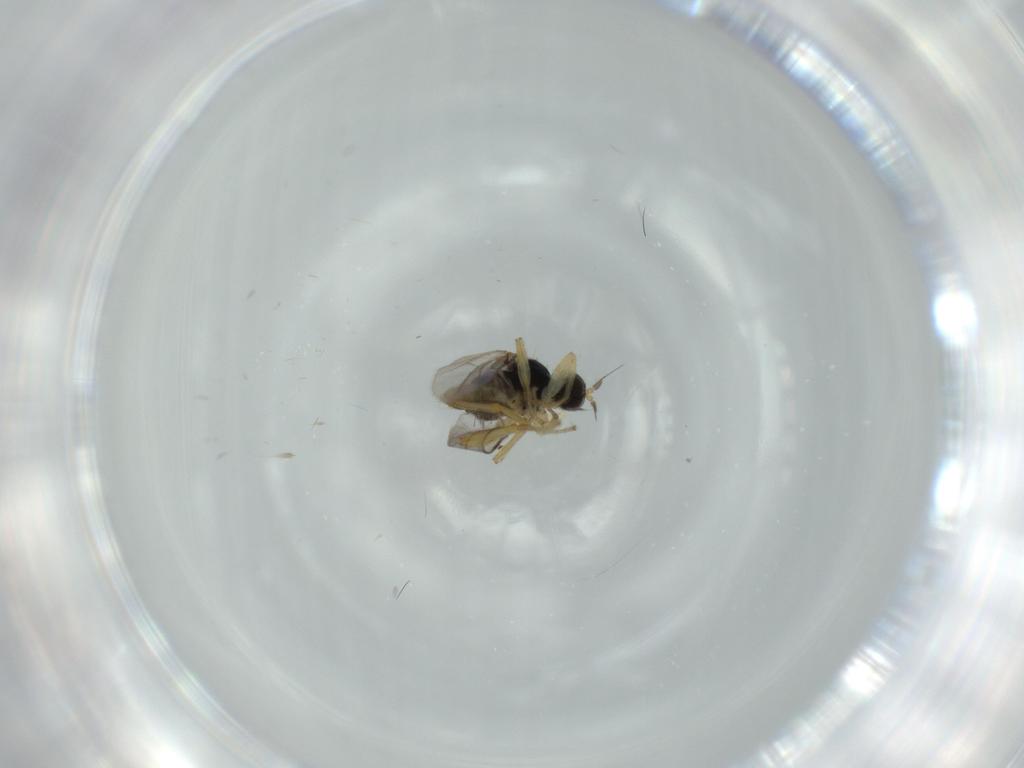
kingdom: Animalia
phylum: Arthropoda
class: Insecta
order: Diptera
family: Hybotidae
